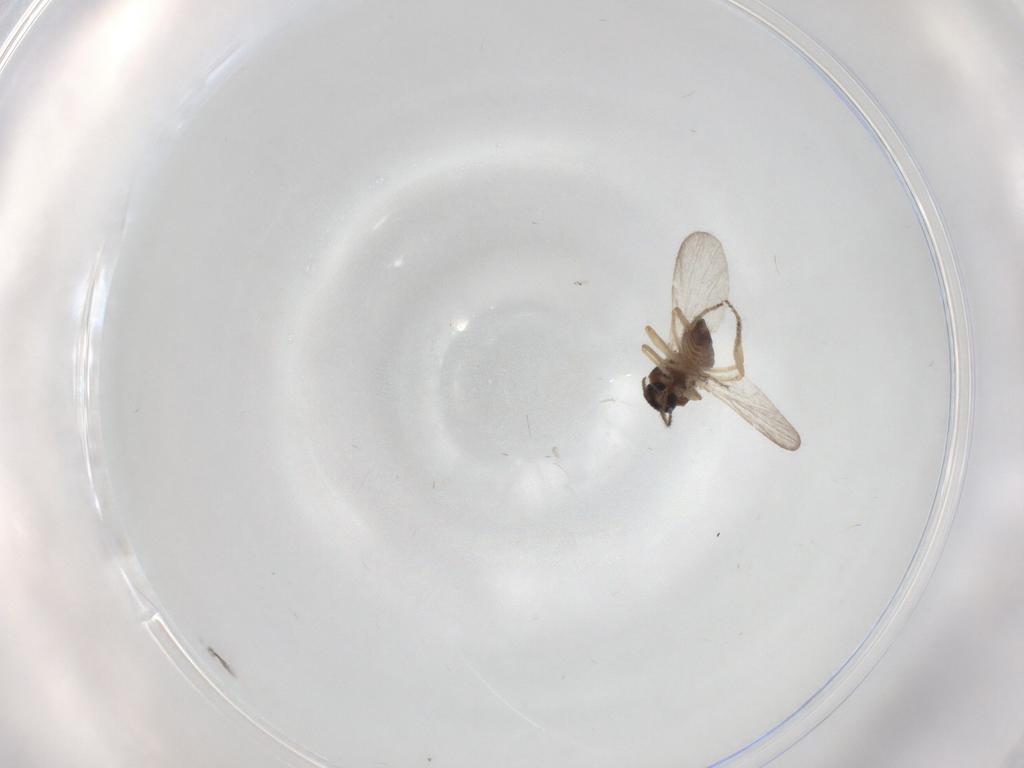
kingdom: Animalia
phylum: Arthropoda
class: Insecta
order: Diptera
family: Ceratopogonidae
